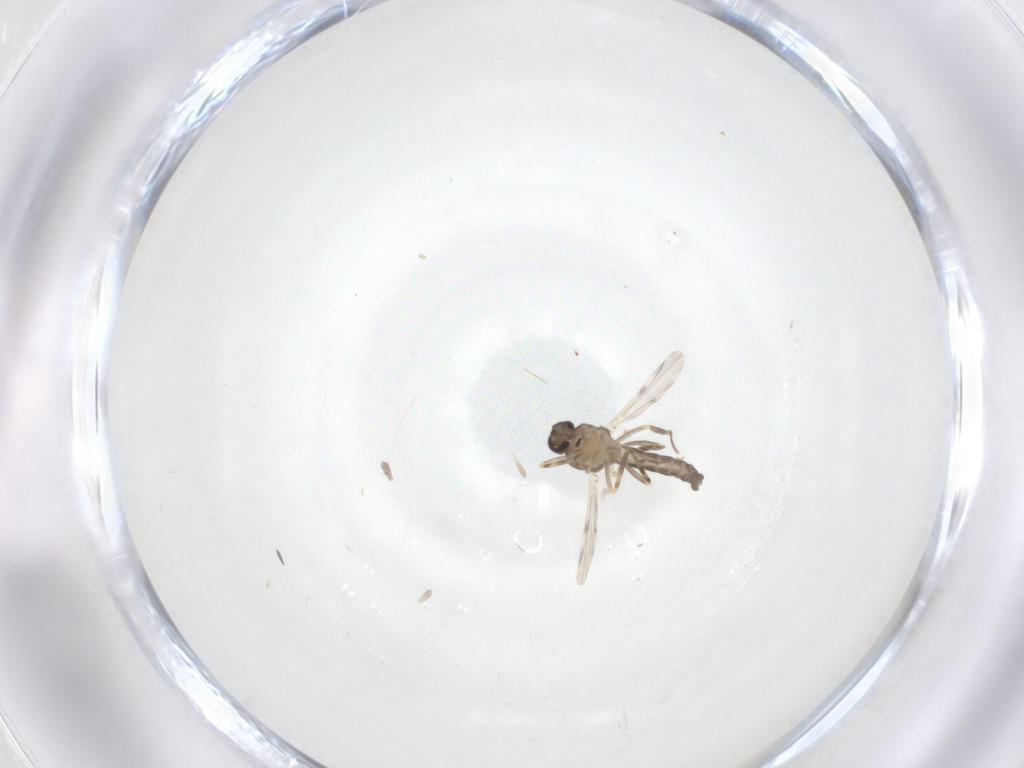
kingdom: Animalia
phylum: Arthropoda
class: Insecta
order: Diptera
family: Ceratopogonidae
